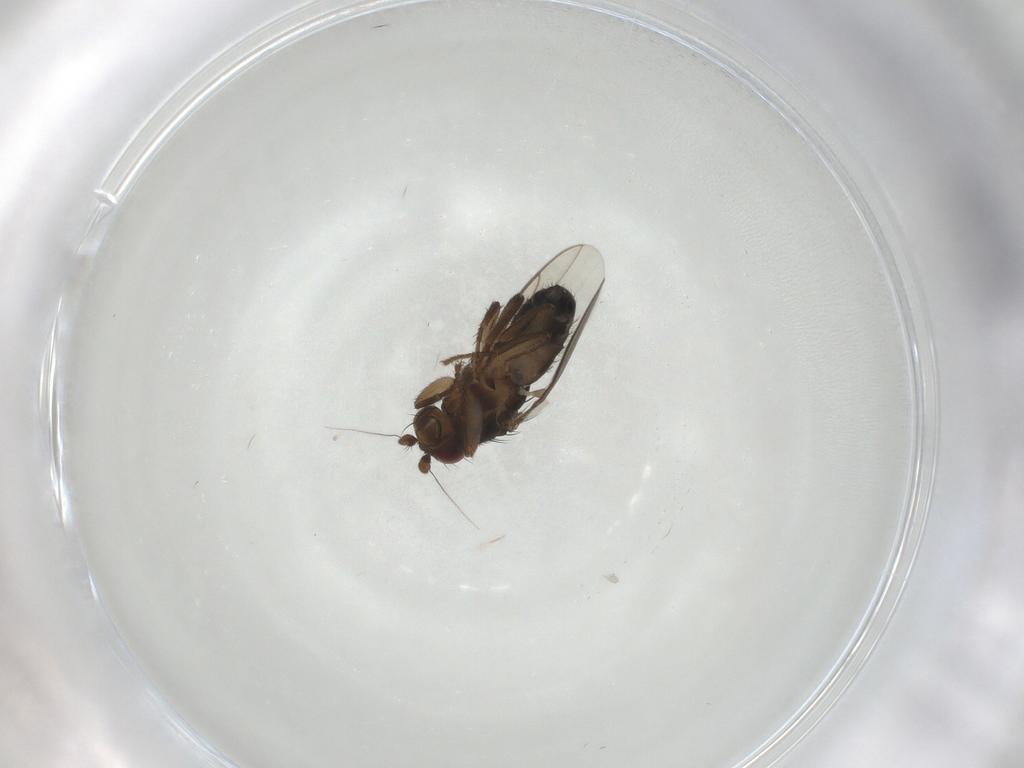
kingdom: Animalia
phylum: Arthropoda
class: Insecta
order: Diptera
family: Sphaeroceridae
